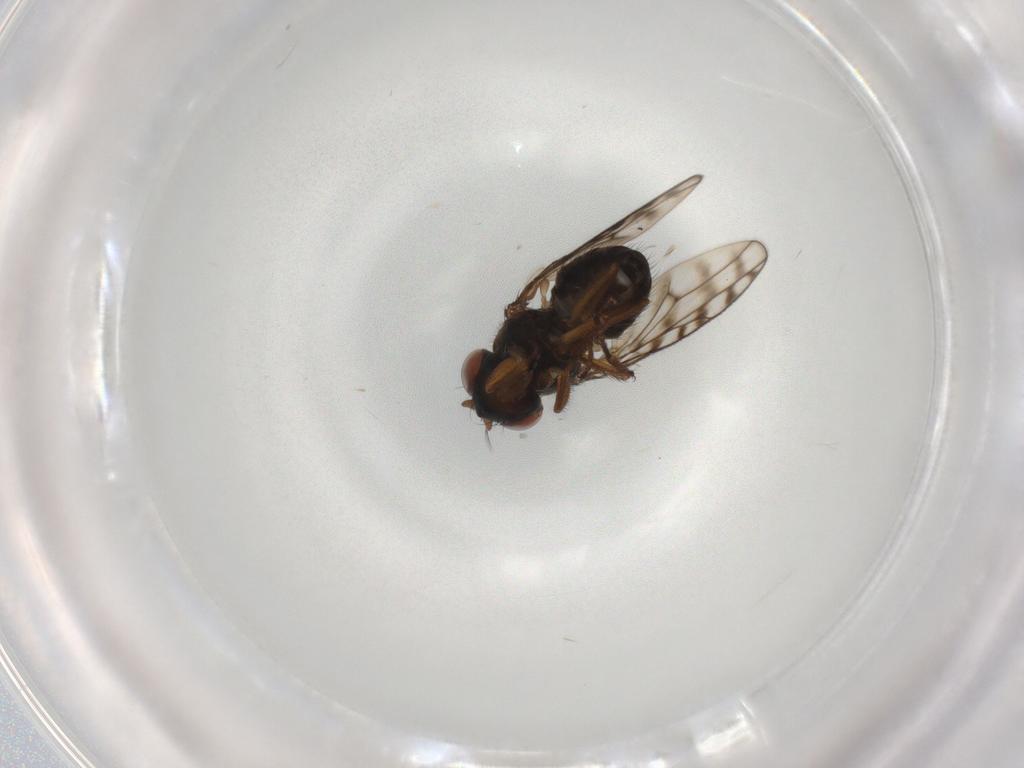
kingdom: Animalia
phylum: Arthropoda
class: Insecta
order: Diptera
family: Ephydridae
